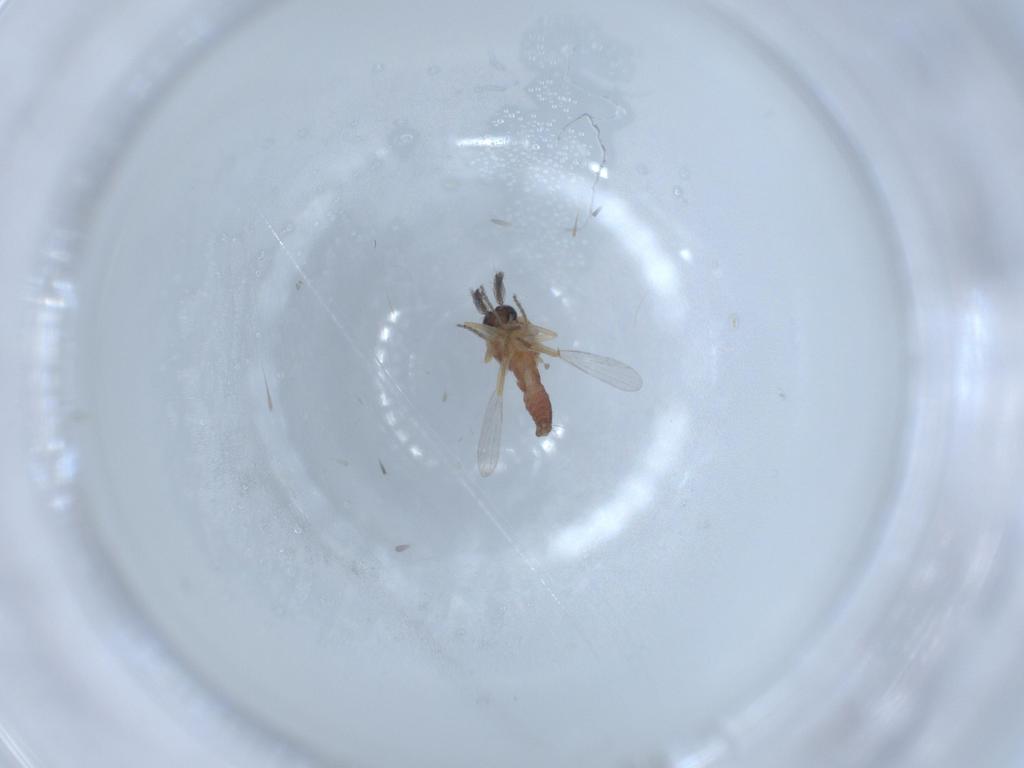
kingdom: Animalia
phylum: Arthropoda
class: Insecta
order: Diptera
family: Ceratopogonidae
